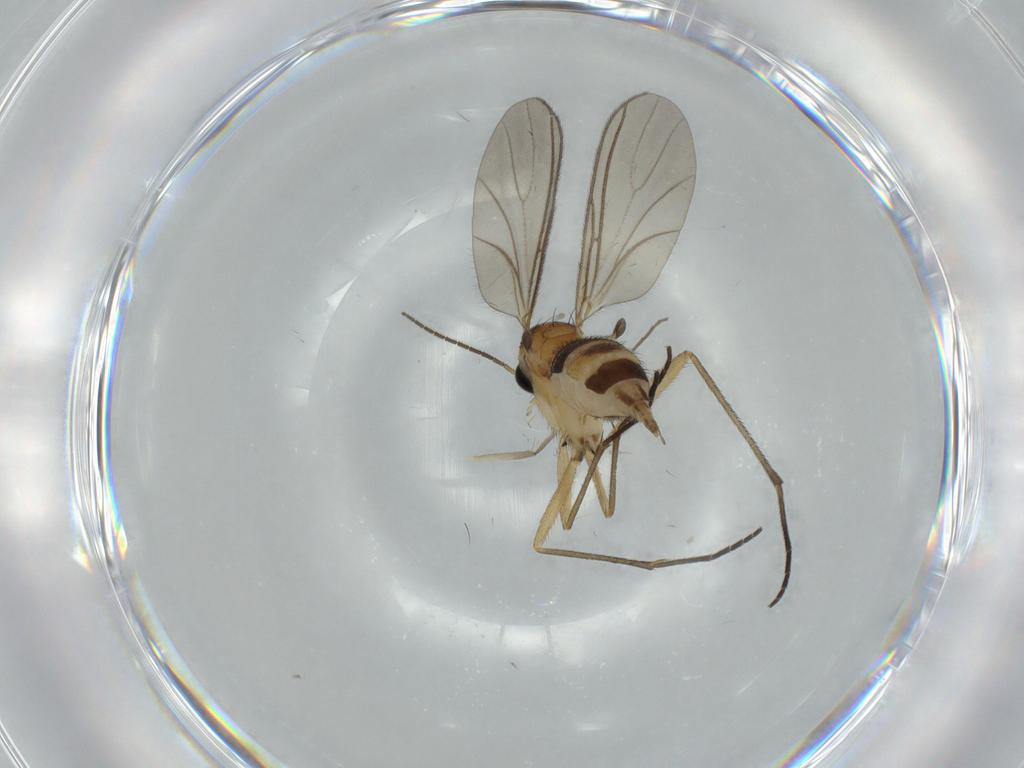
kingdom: Animalia
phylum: Arthropoda
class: Insecta
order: Diptera
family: Chironomidae
